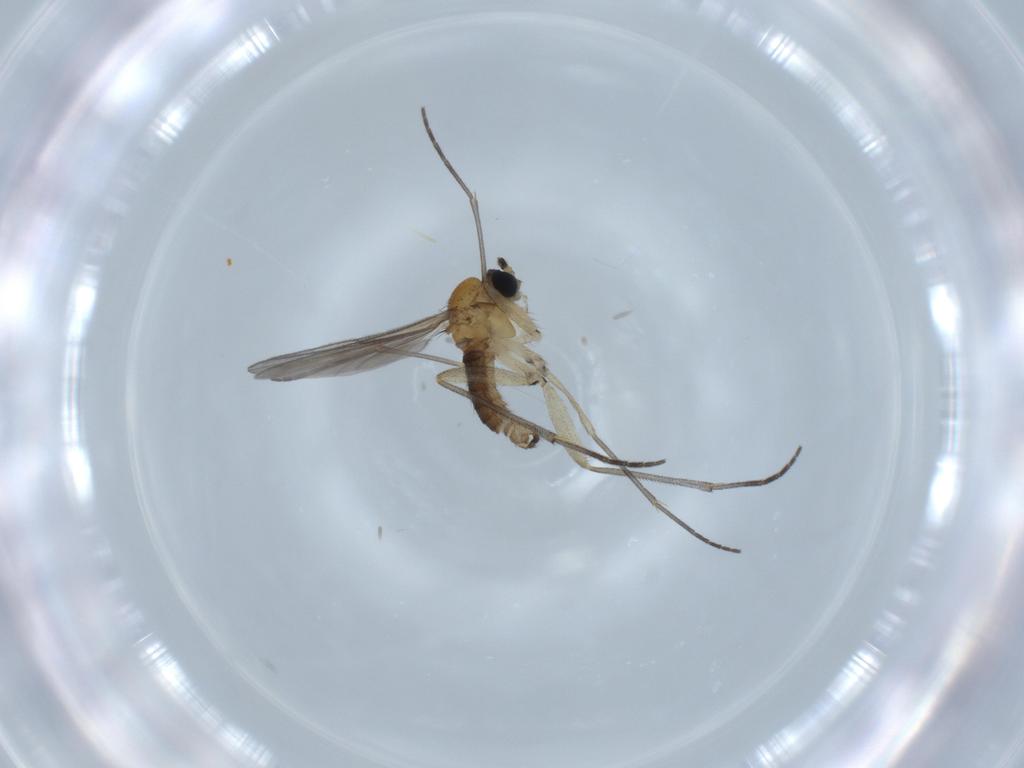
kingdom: Animalia
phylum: Arthropoda
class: Insecta
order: Diptera
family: Sciaridae
